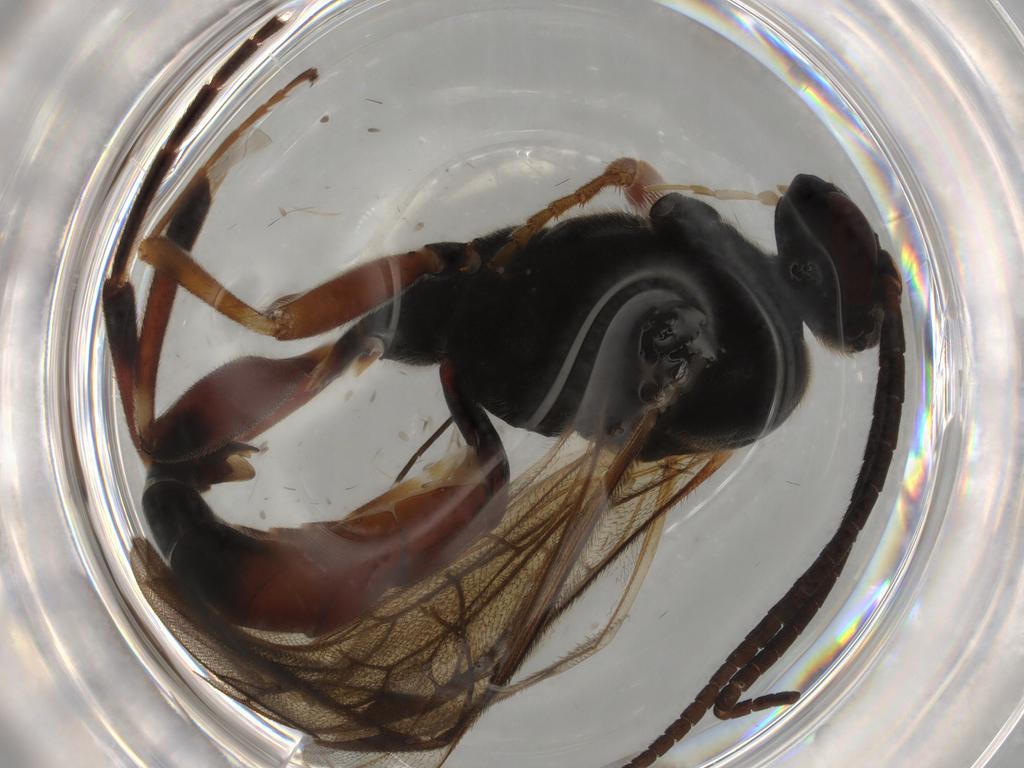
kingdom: Animalia
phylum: Arthropoda
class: Insecta
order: Hymenoptera
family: Ichneumonidae
